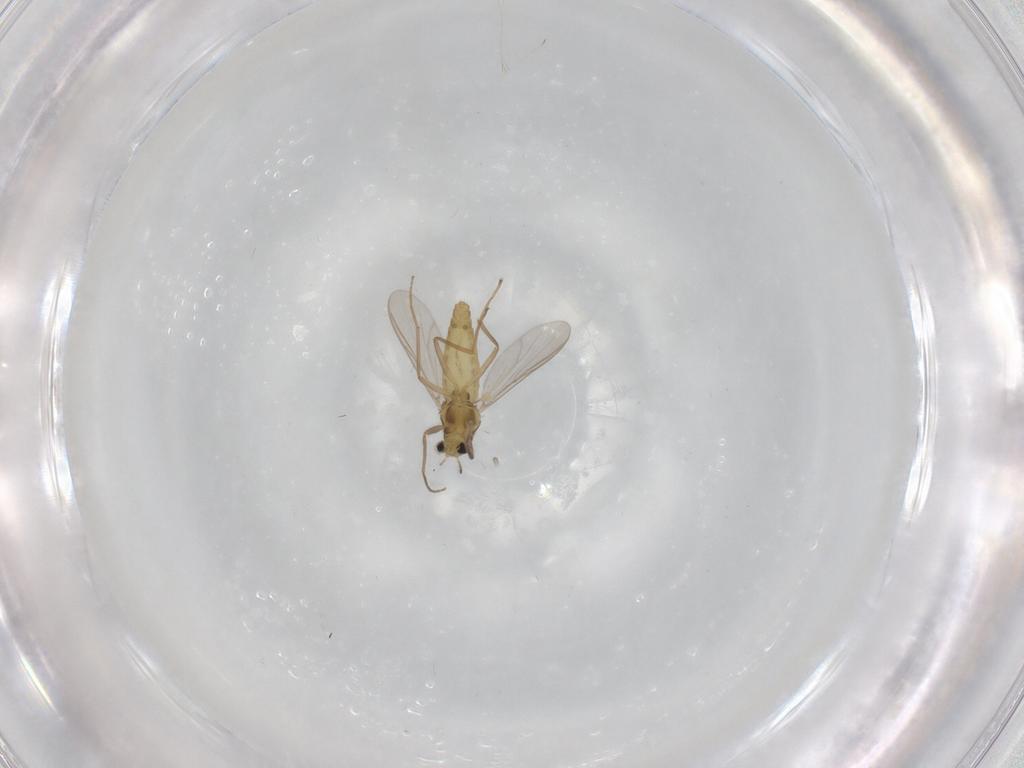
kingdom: Animalia
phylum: Arthropoda
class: Insecta
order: Diptera
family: Chironomidae
